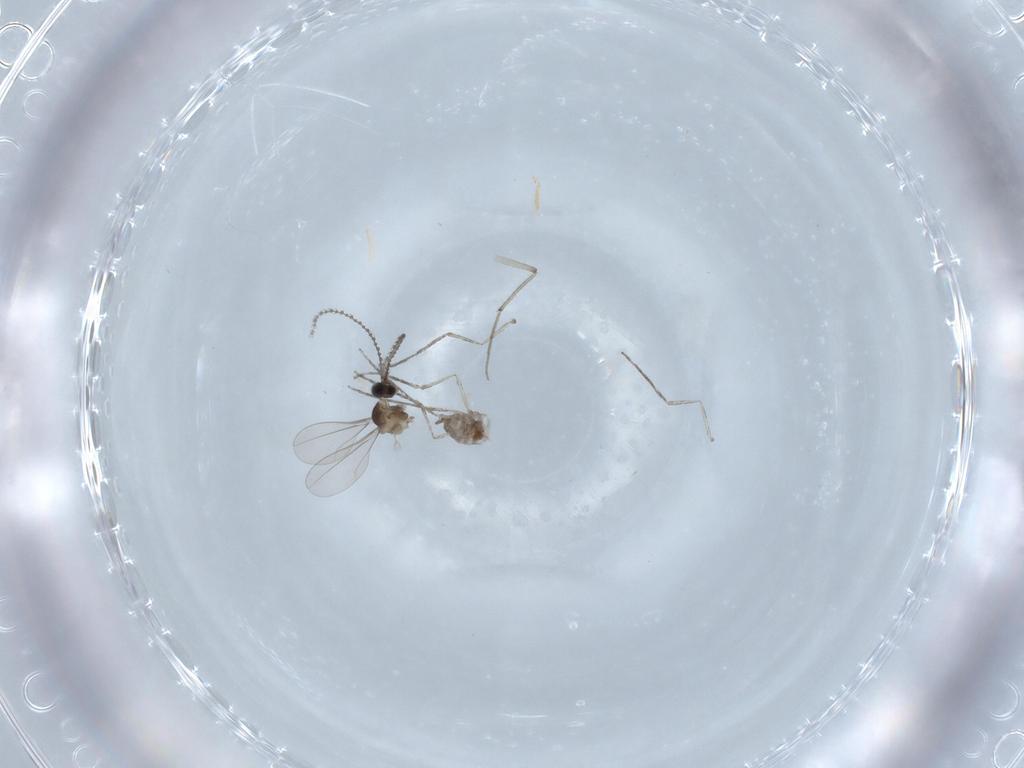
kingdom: Animalia
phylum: Arthropoda
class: Insecta
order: Diptera
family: Cecidomyiidae
